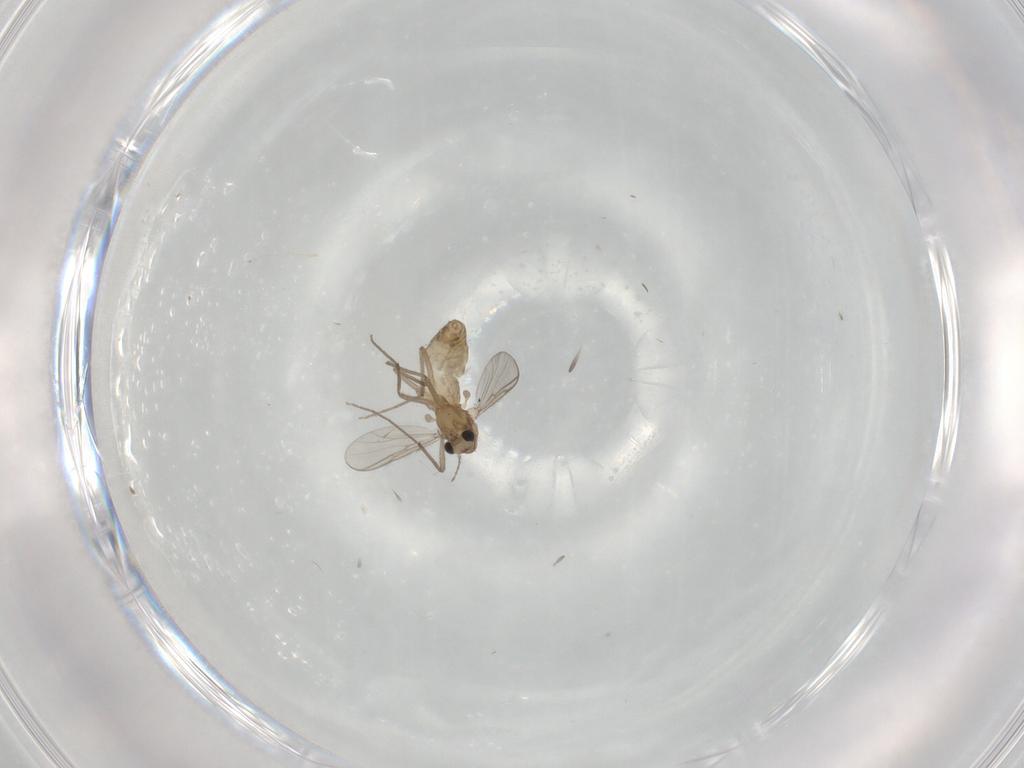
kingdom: Animalia
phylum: Arthropoda
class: Insecta
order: Diptera
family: Chironomidae
